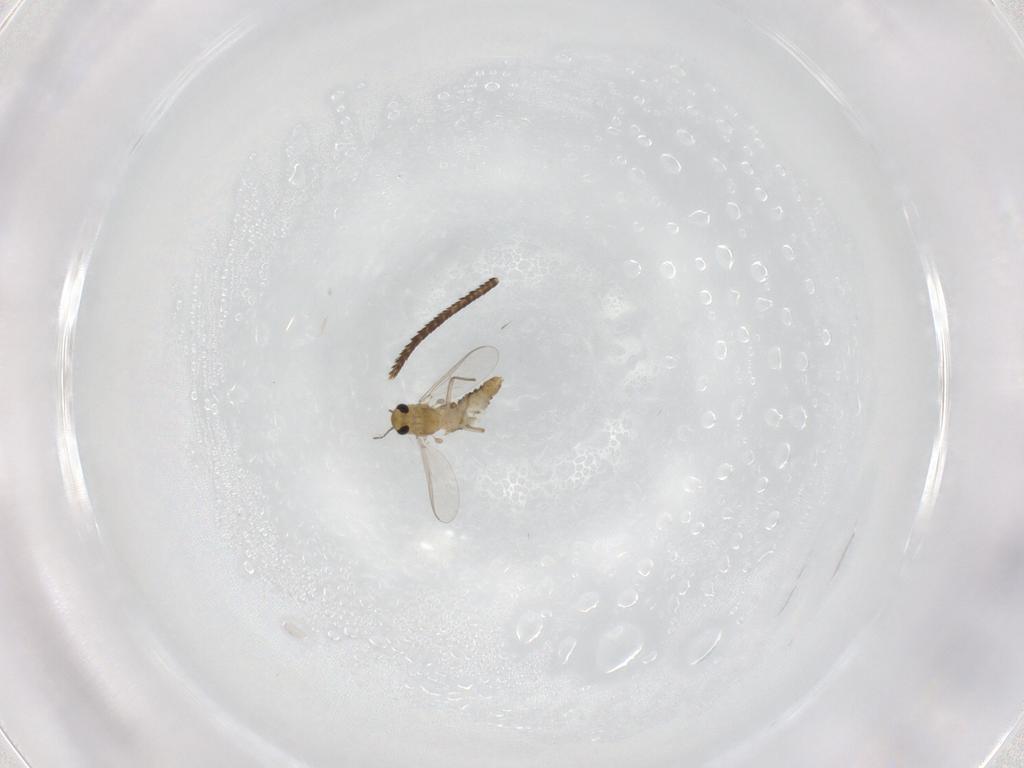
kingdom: Animalia
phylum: Arthropoda
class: Insecta
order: Diptera
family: Chironomidae
